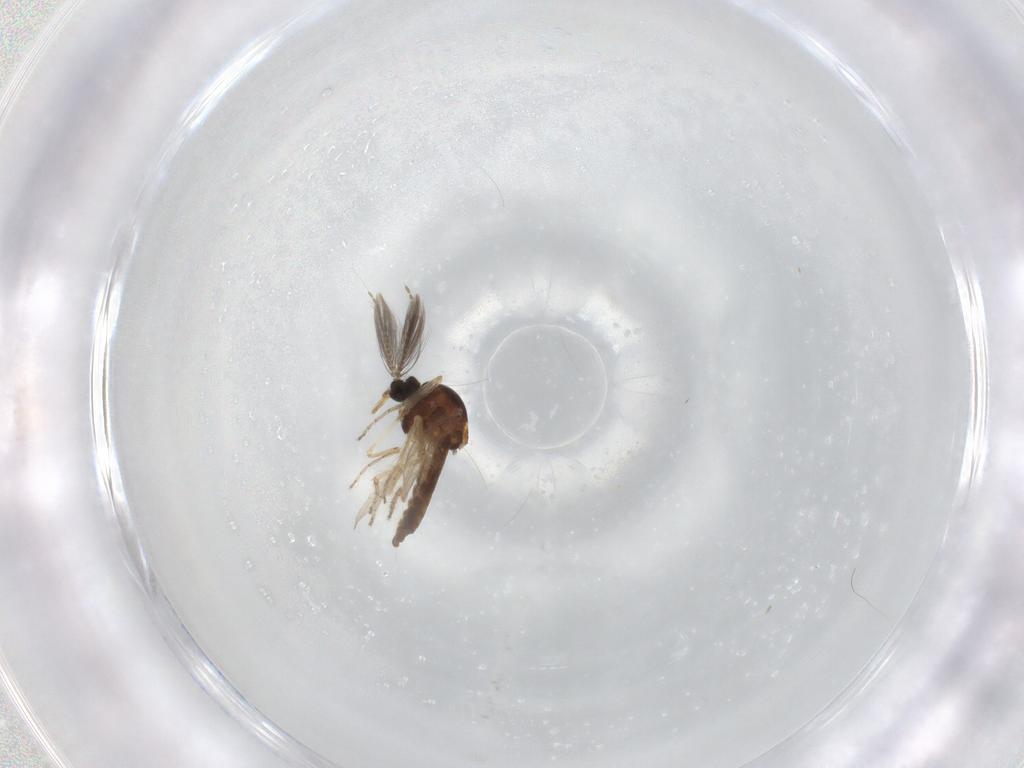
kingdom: Animalia
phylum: Arthropoda
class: Insecta
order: Diptera
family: Ceratopogonidae
